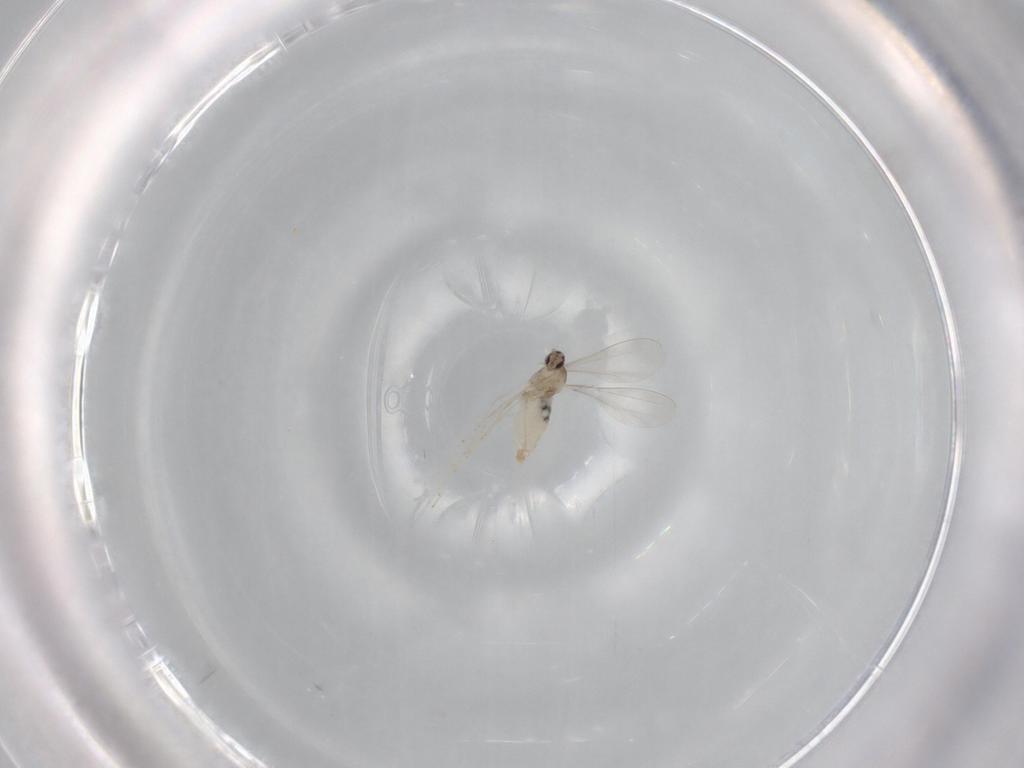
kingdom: Animalia
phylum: Arthropoda
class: Insecta
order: Diptera
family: Cecidomyiidae
